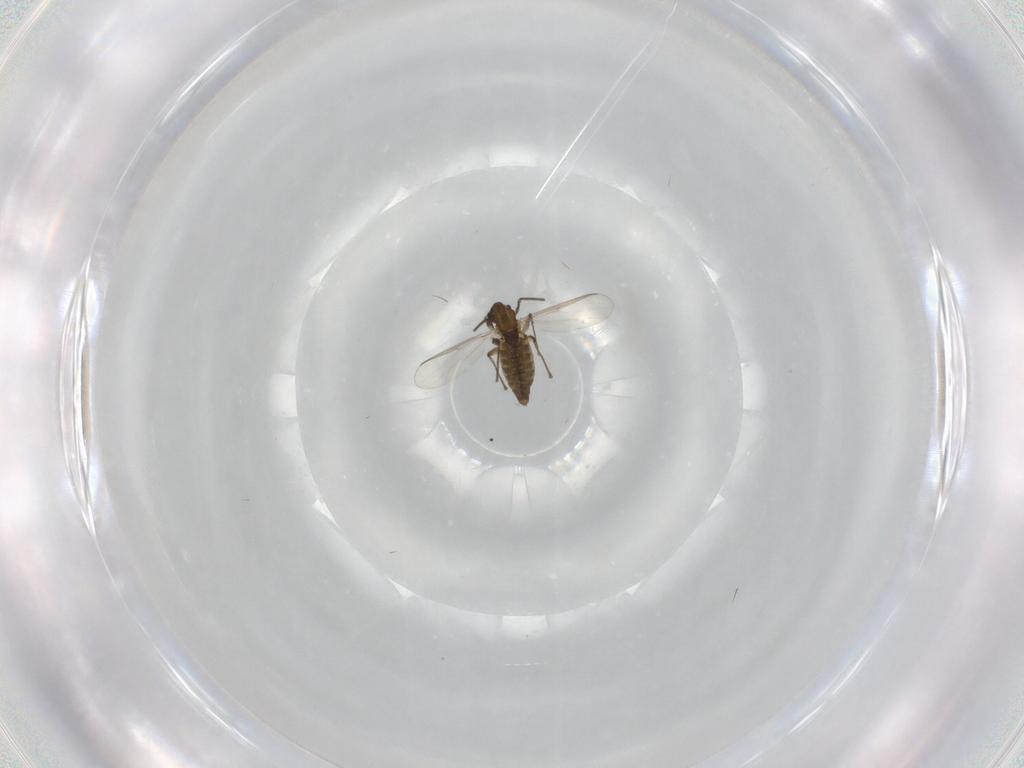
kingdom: Animalia
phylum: Arthropoda
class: Insecta
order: Diptera
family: Chironomidae
